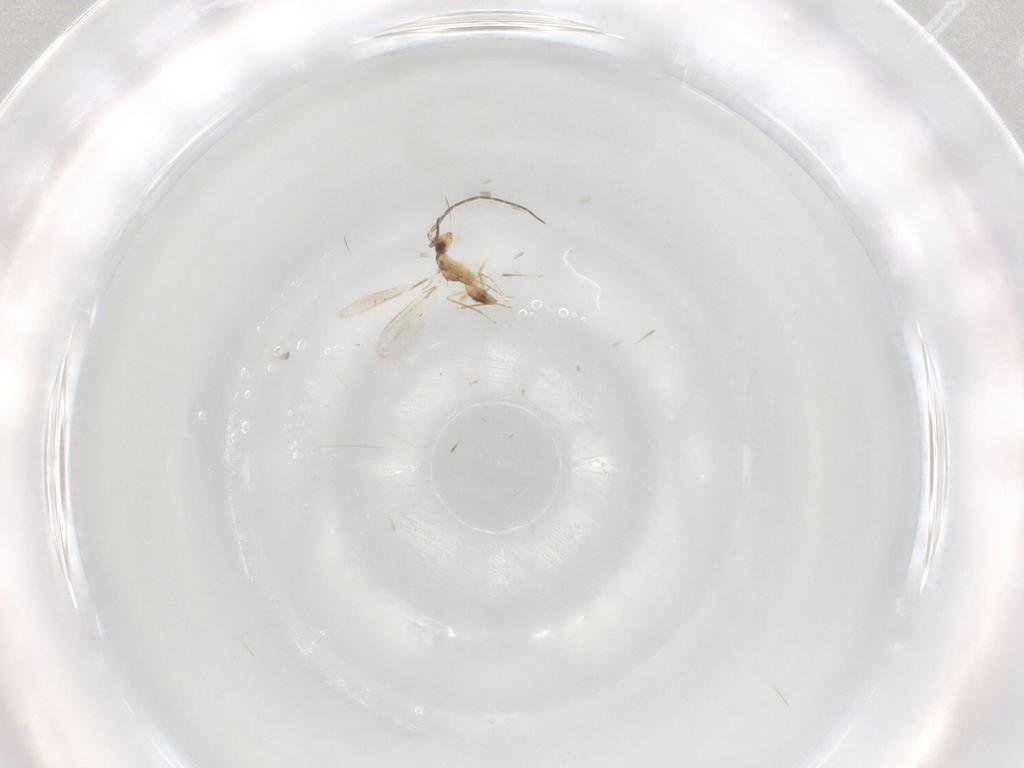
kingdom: Animalia
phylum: Arthropoda
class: Insecta
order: Hymenoptera
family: Mymaridae
